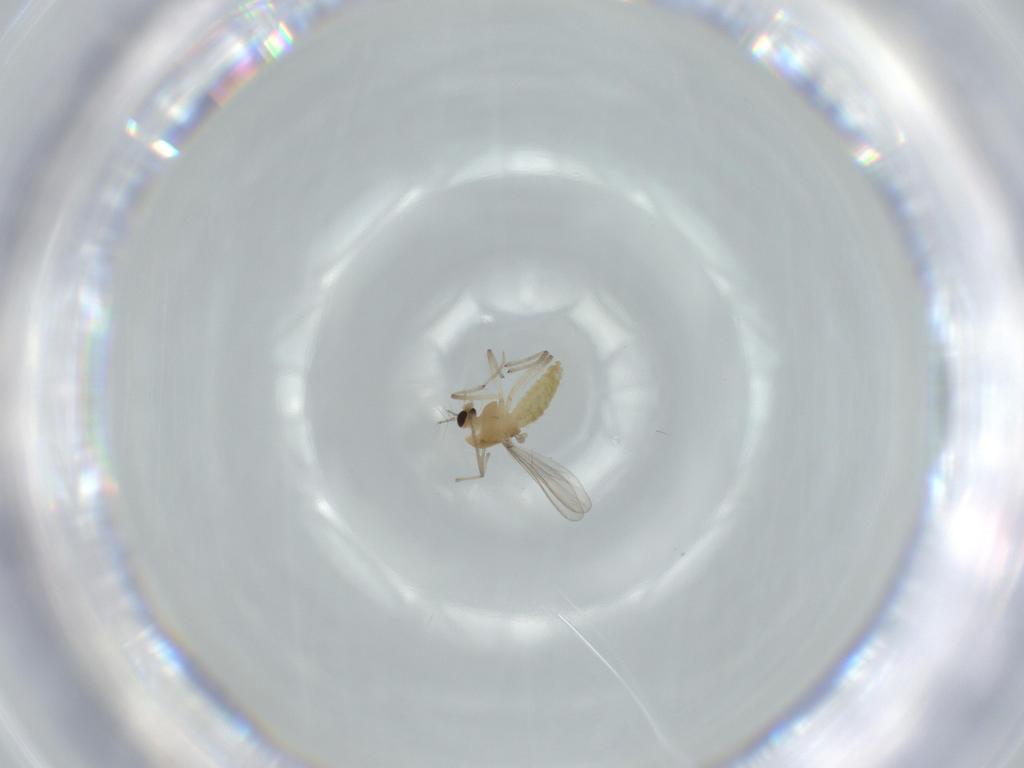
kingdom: Animalia
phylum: Arthropoda
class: Insecta
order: Diptera
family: Chironomidae
